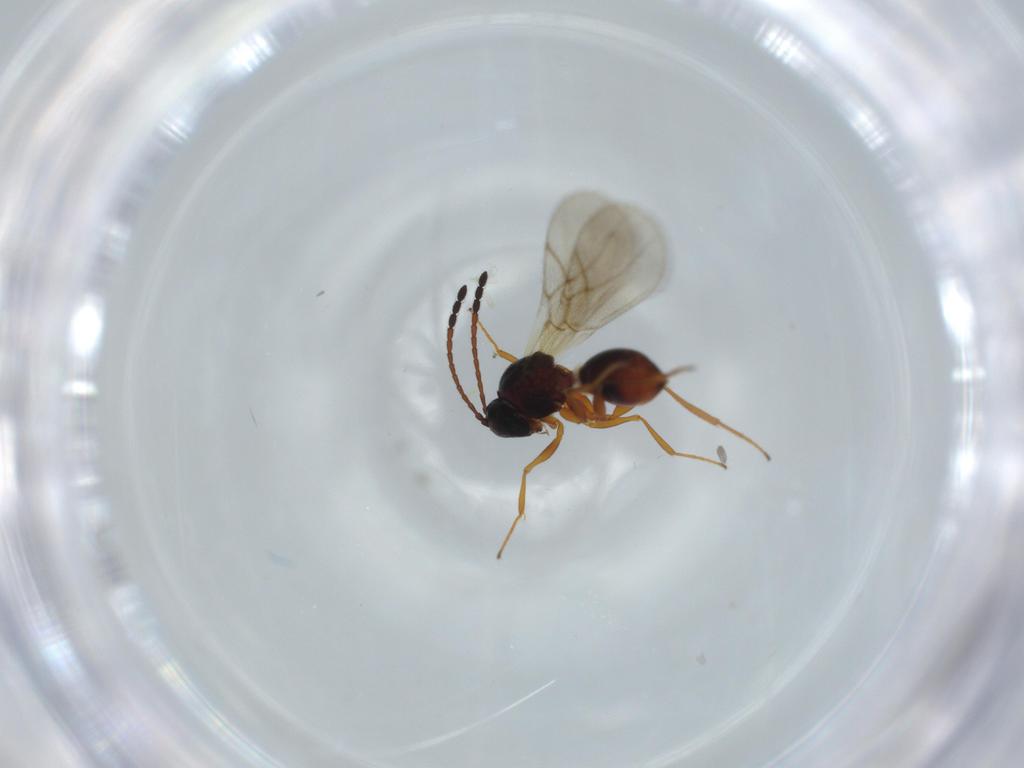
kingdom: Animalia
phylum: Arthropoda
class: Insecta
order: Hymenoptera
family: Figitidae
